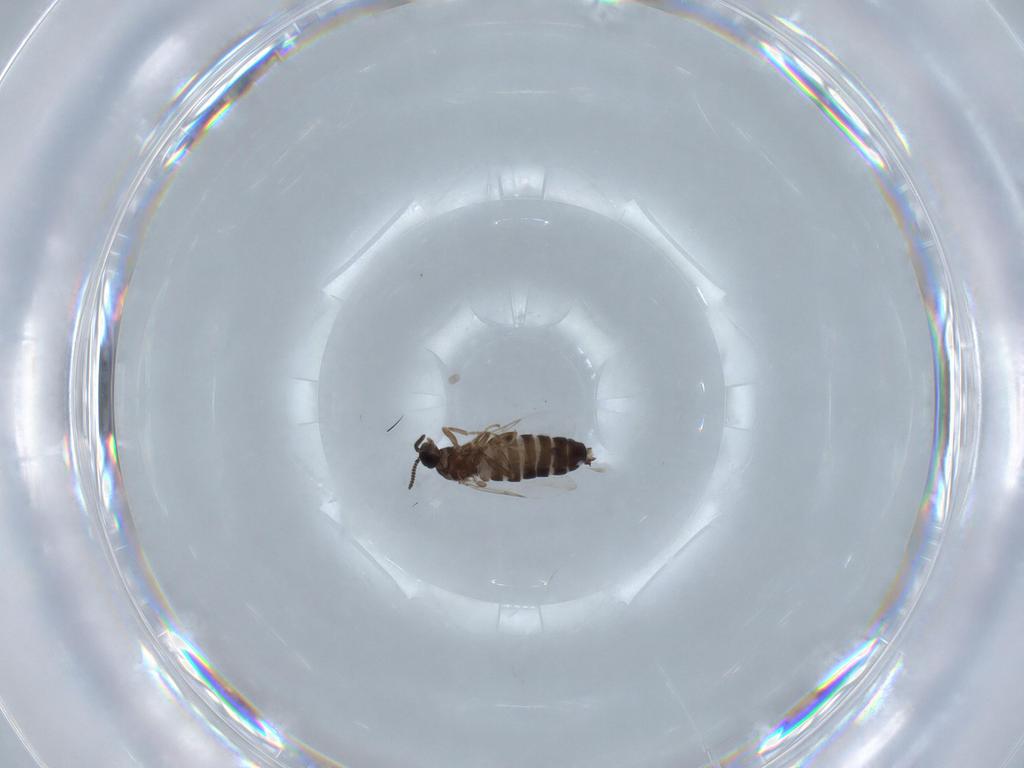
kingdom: Animalia
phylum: Arthropoda
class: Insecta
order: Diptera
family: Scatopsidae
